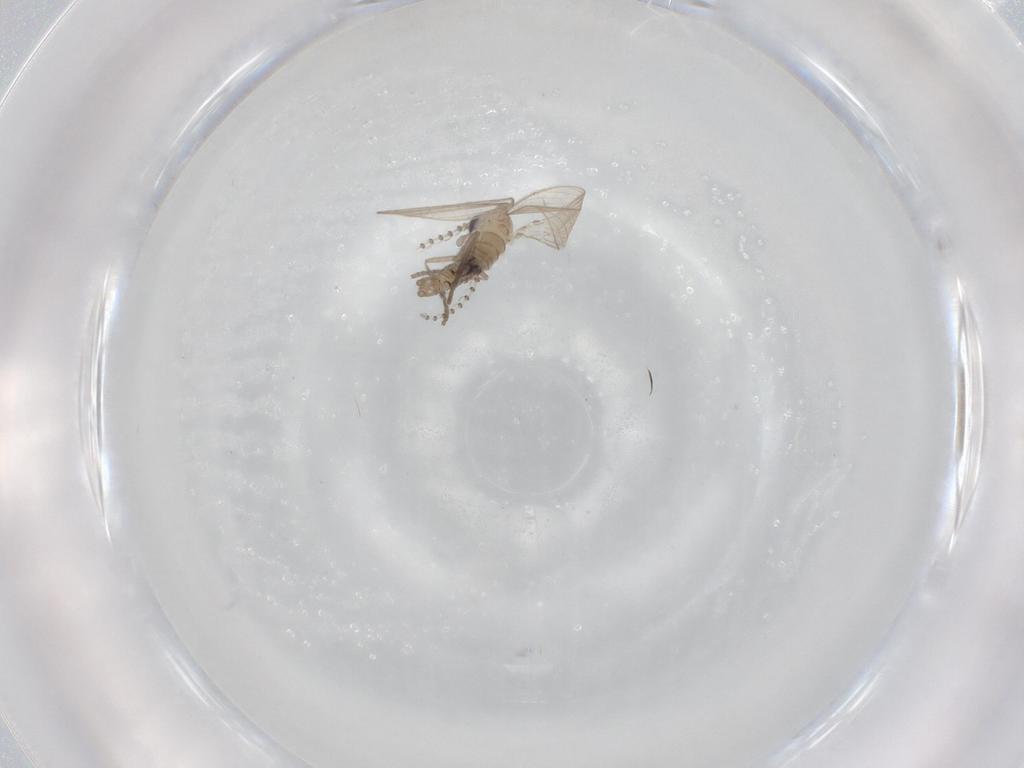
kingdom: Animalia
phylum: Arthropoda
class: Insecta
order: Diptera
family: Psychodidae
